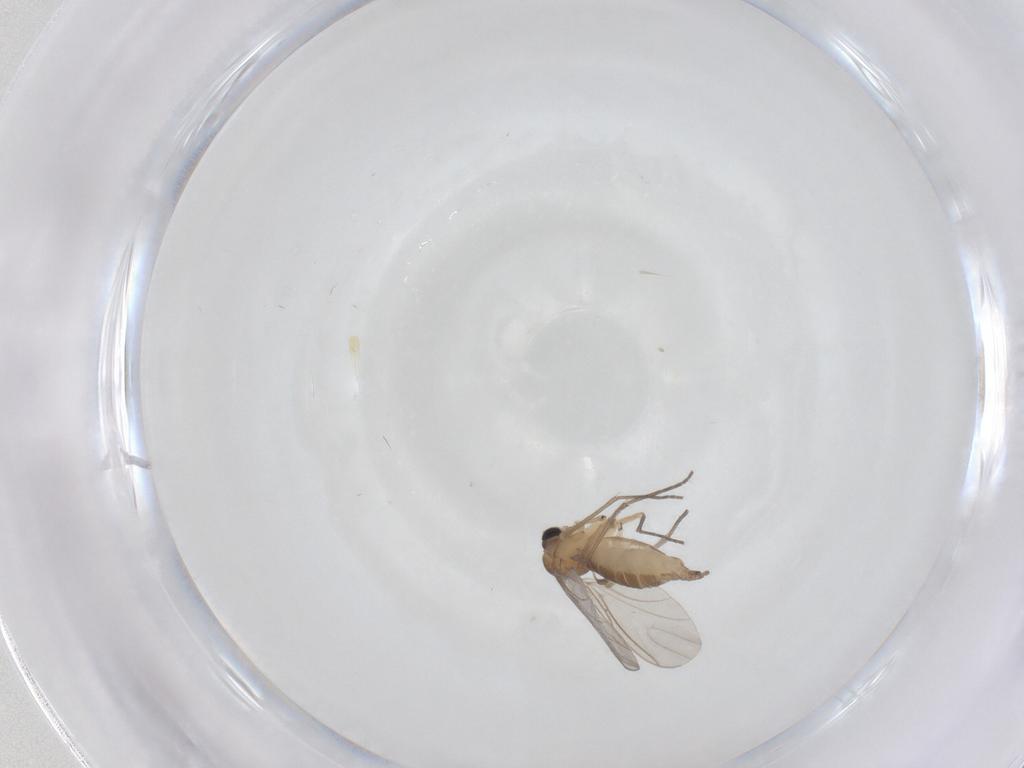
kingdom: Animalia
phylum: Arthropoda
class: Insecta
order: Diptera
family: Sciaridae
